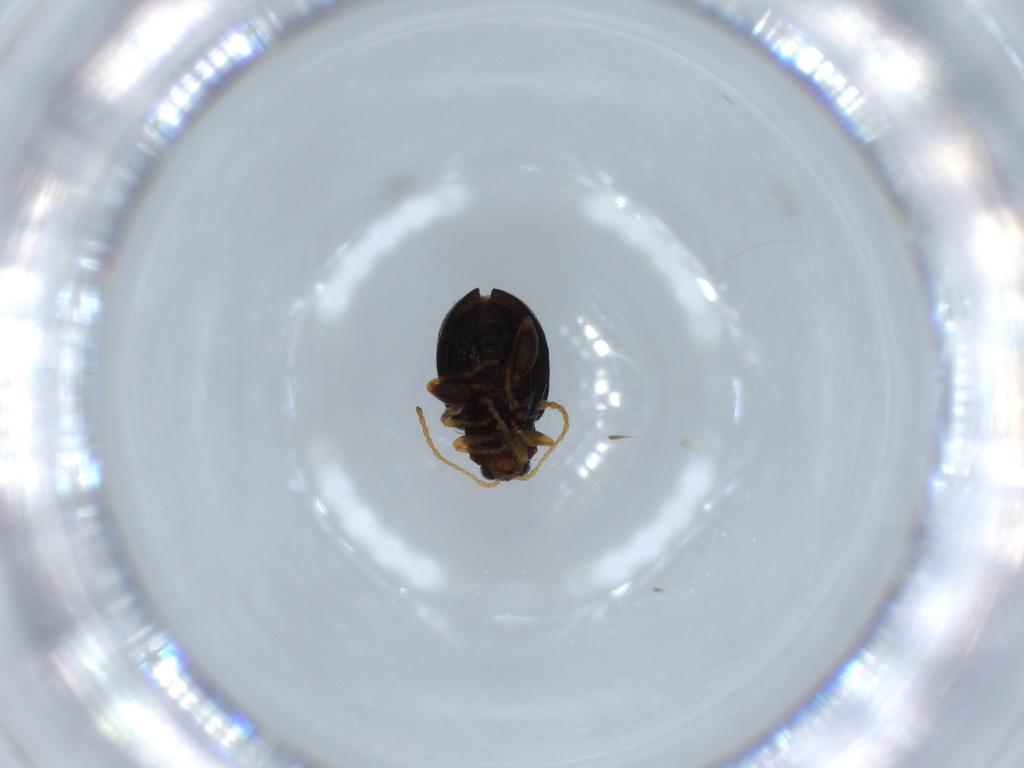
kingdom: Animalia
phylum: Arthropoda
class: Insecta
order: Coleoptera
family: Chrysomelidae
